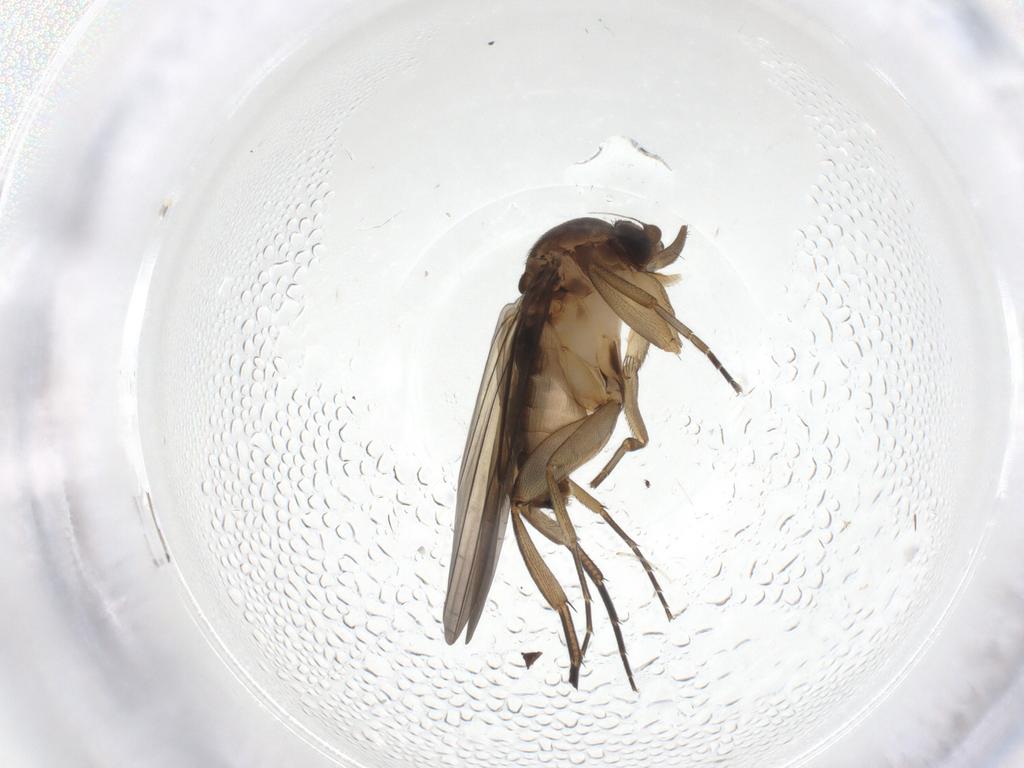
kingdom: Animalia
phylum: Arthropoda
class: Insecta
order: Diptera
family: Phoridae
